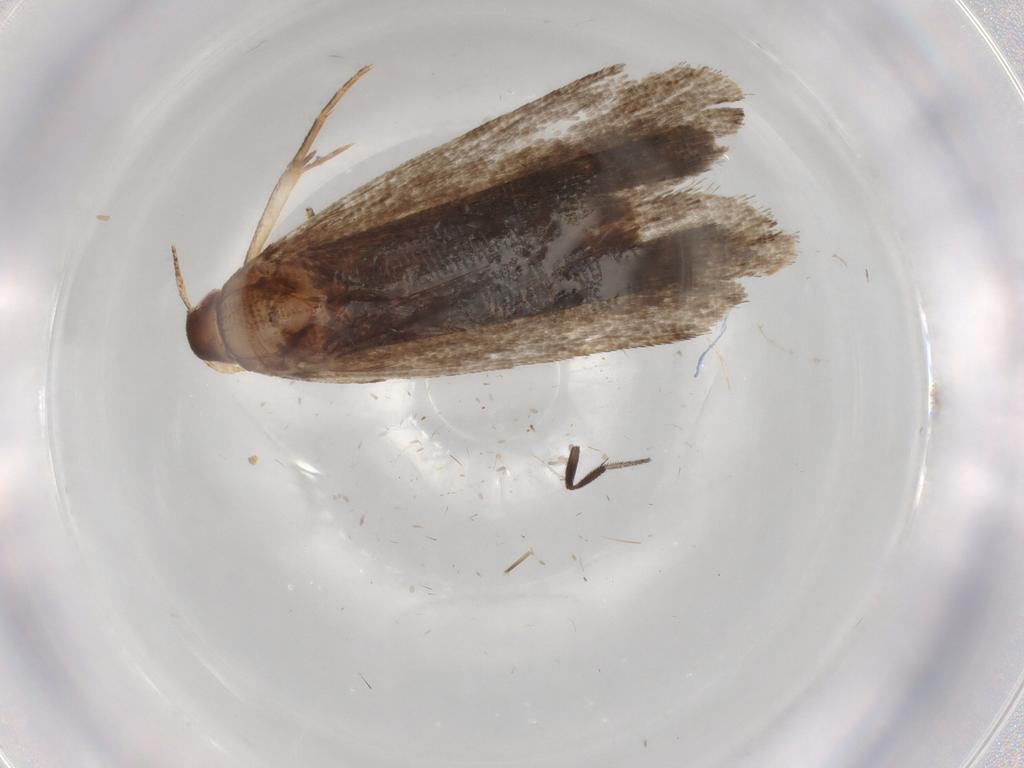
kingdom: Animalia
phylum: Arthropoda
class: Insecta
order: Lepidoptera
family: Gelechiidae
